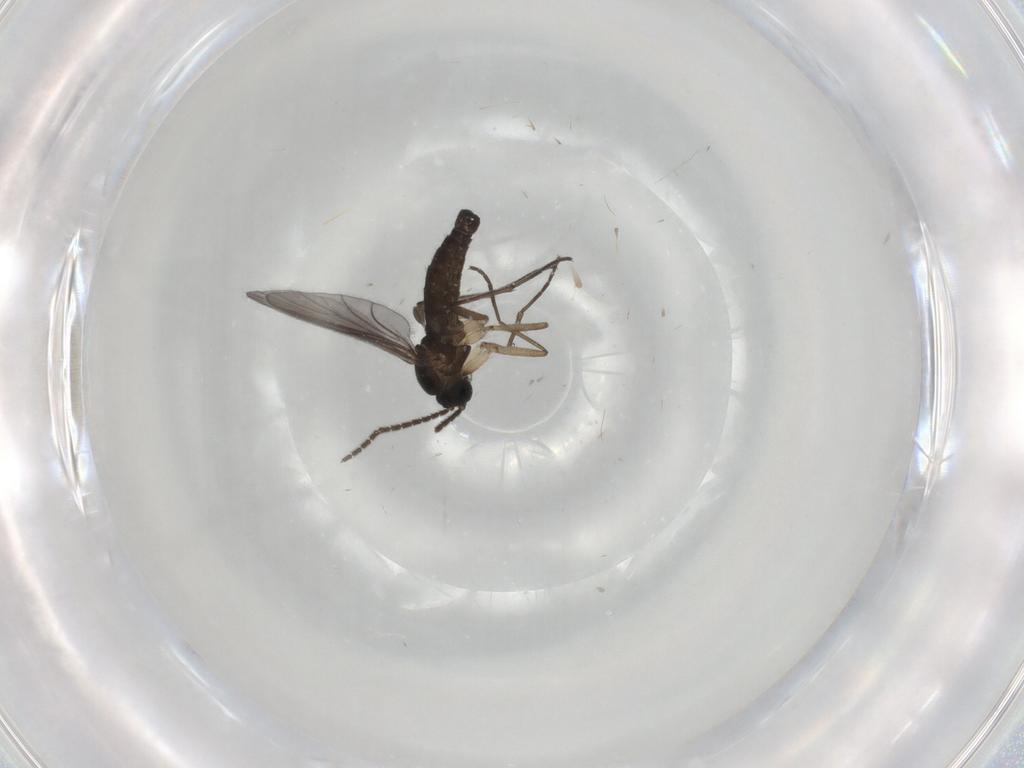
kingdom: Animalia
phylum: Arthropoda
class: Insecta
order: Diptera
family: Sciaridae
